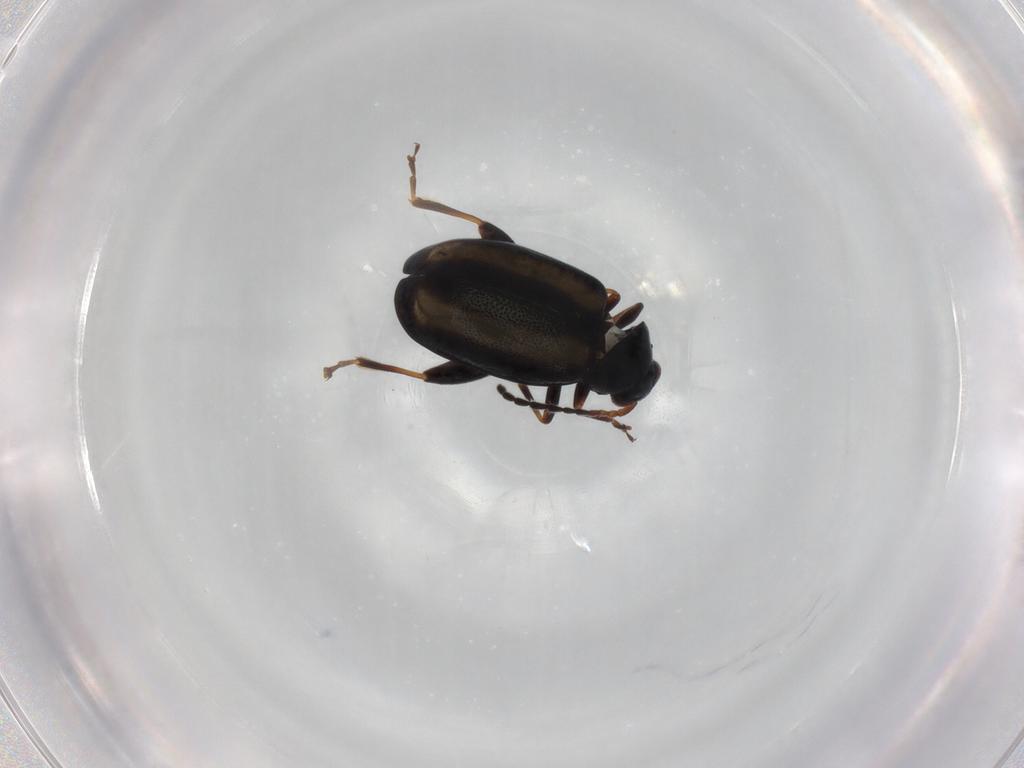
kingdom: Animalia
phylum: Arthropoda
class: Insecta
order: Coleoptera
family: Chrysomelidae
